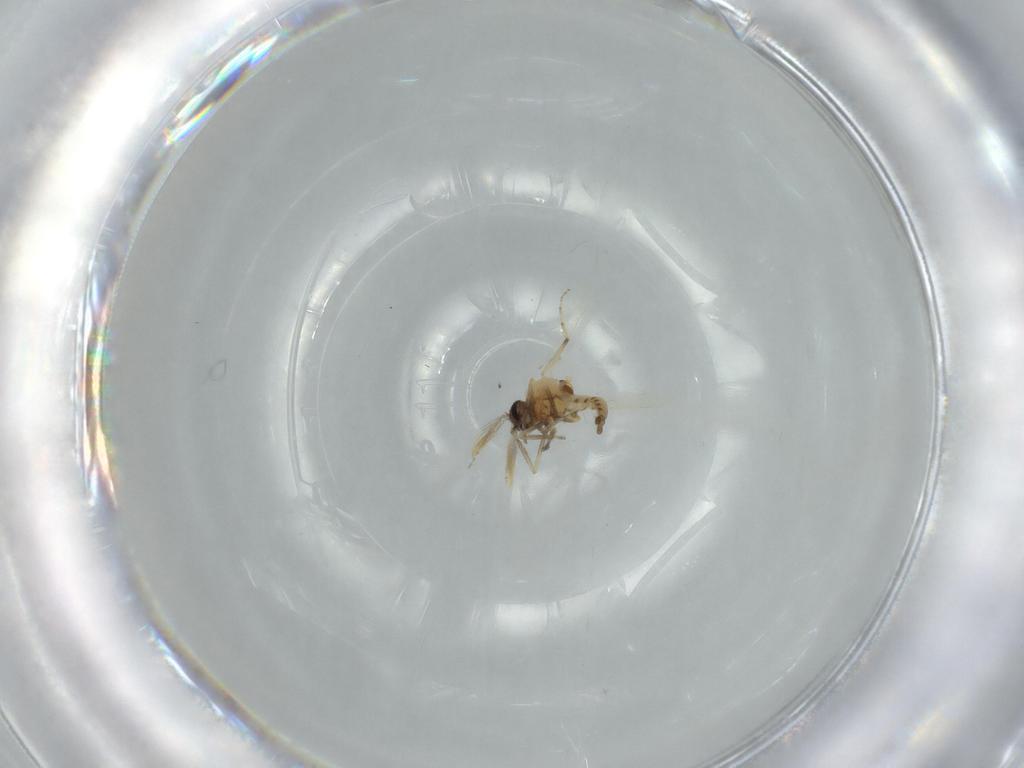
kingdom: Animalia
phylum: Arthropoda
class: Insecta
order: Diptera
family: Ceratopogonidae
